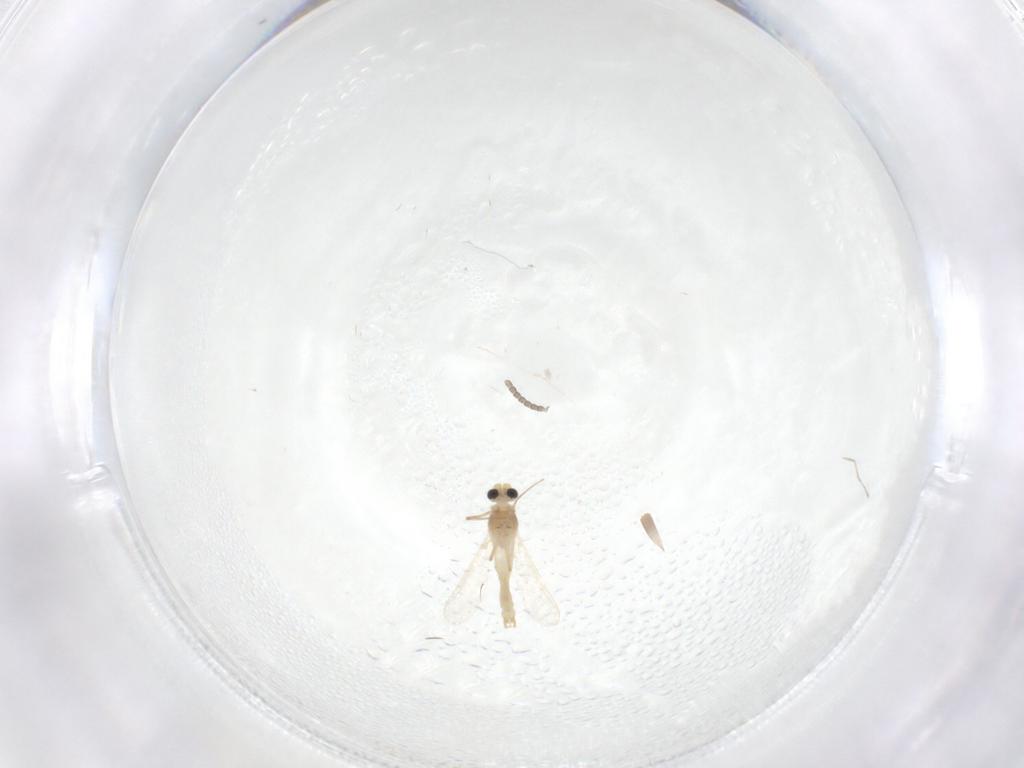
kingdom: Animalia
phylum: Arthropoda
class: Insecta
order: Diptera
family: Chironomidae
